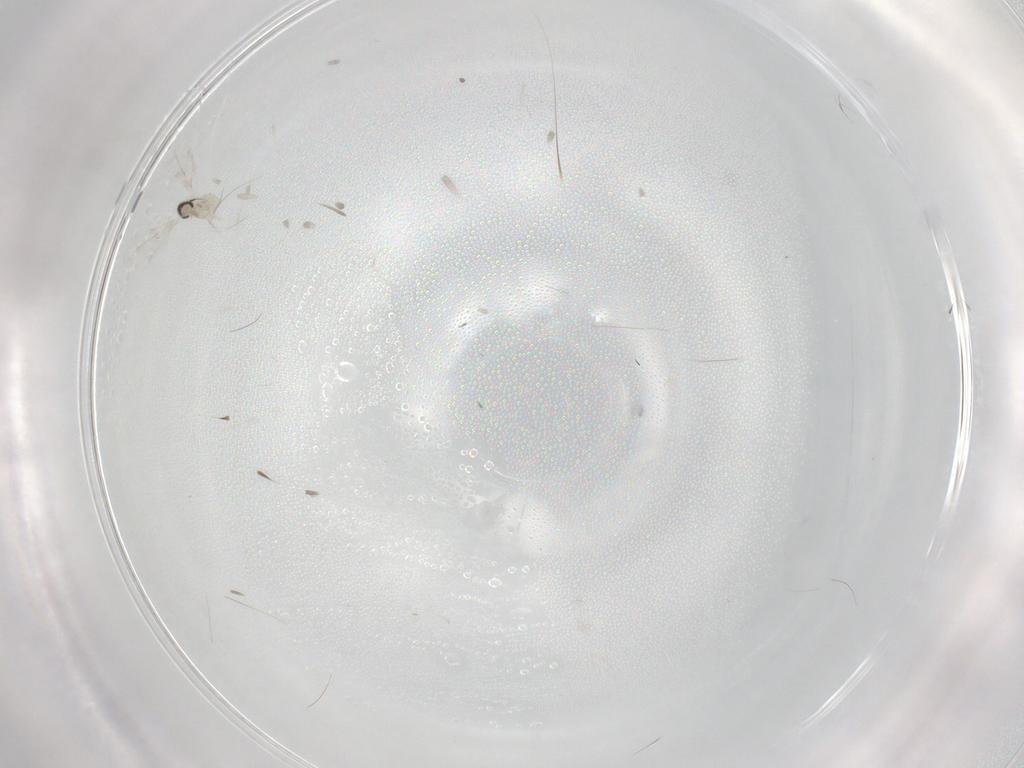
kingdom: Animalia
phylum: Arthropoda
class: Insecta
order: Diptera
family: Cecidomyiidae
